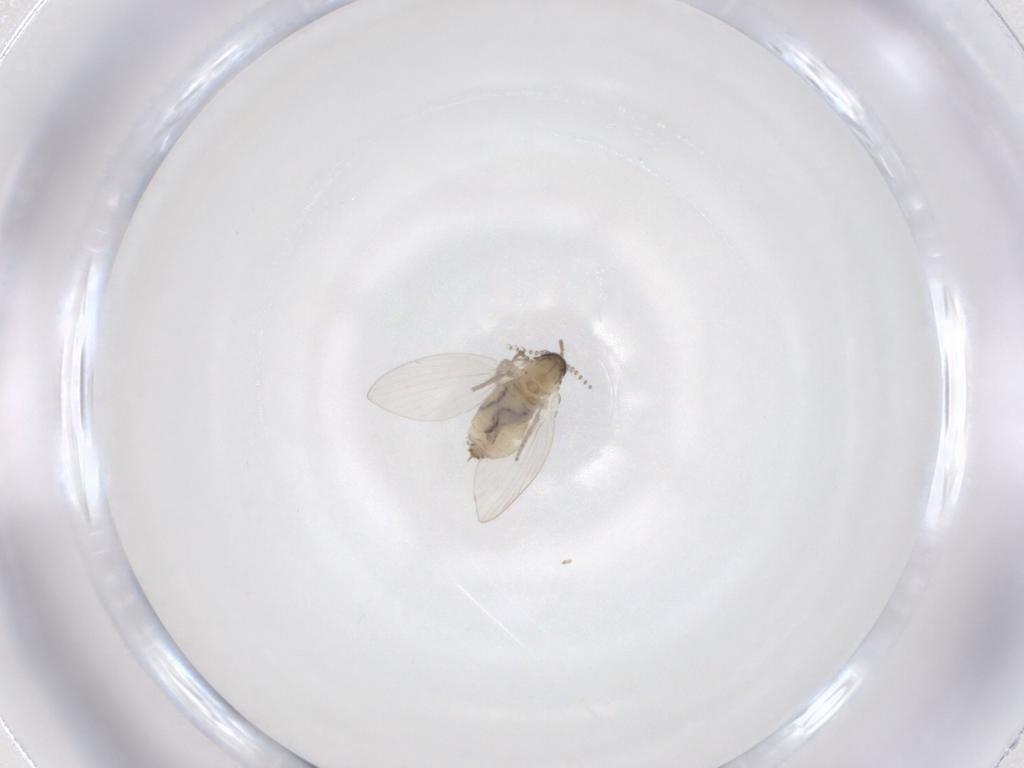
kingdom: Animalia
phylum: Arthropoda
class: Insecta
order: Diptera
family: Psychodidae
